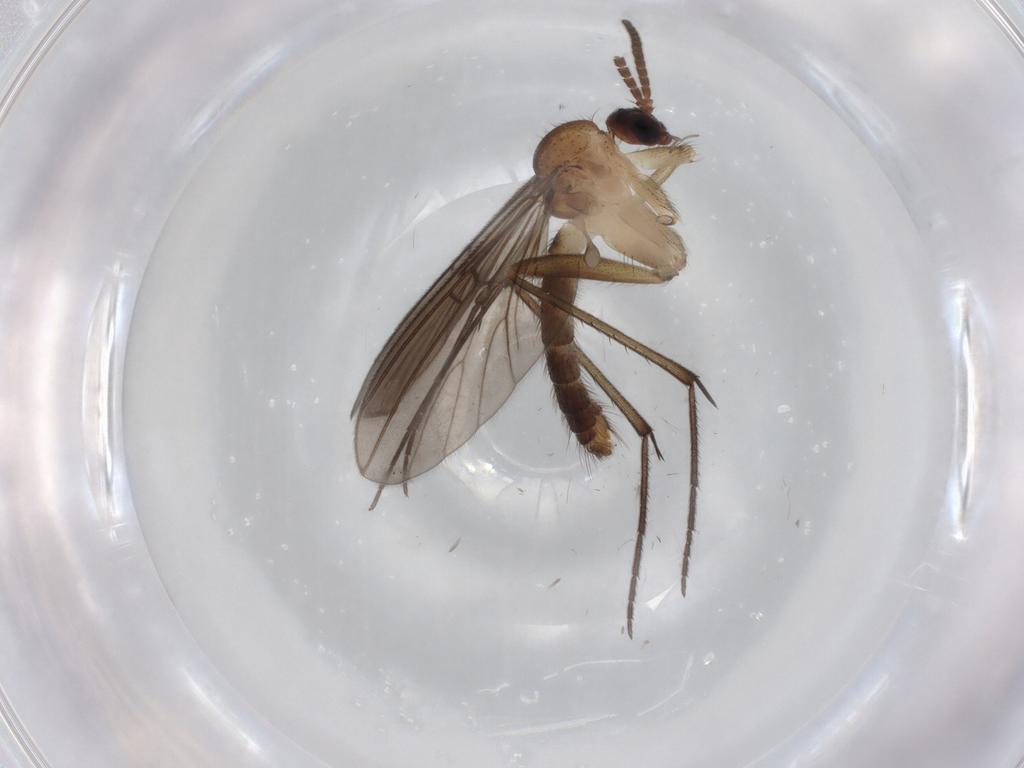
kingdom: Animalia
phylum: Arthropoda
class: Insecta
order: Diptera
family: Mycetophilidae
